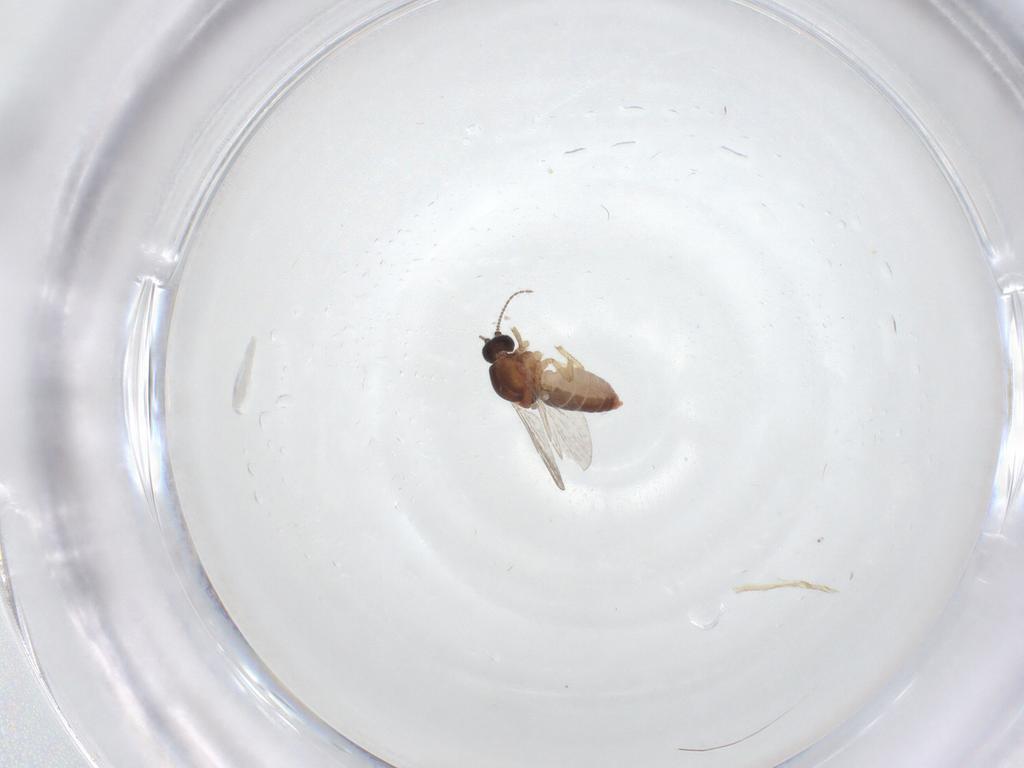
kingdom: Animalia
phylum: Arthropoda
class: Insecta
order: Diptera
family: Ceratopogonidae
